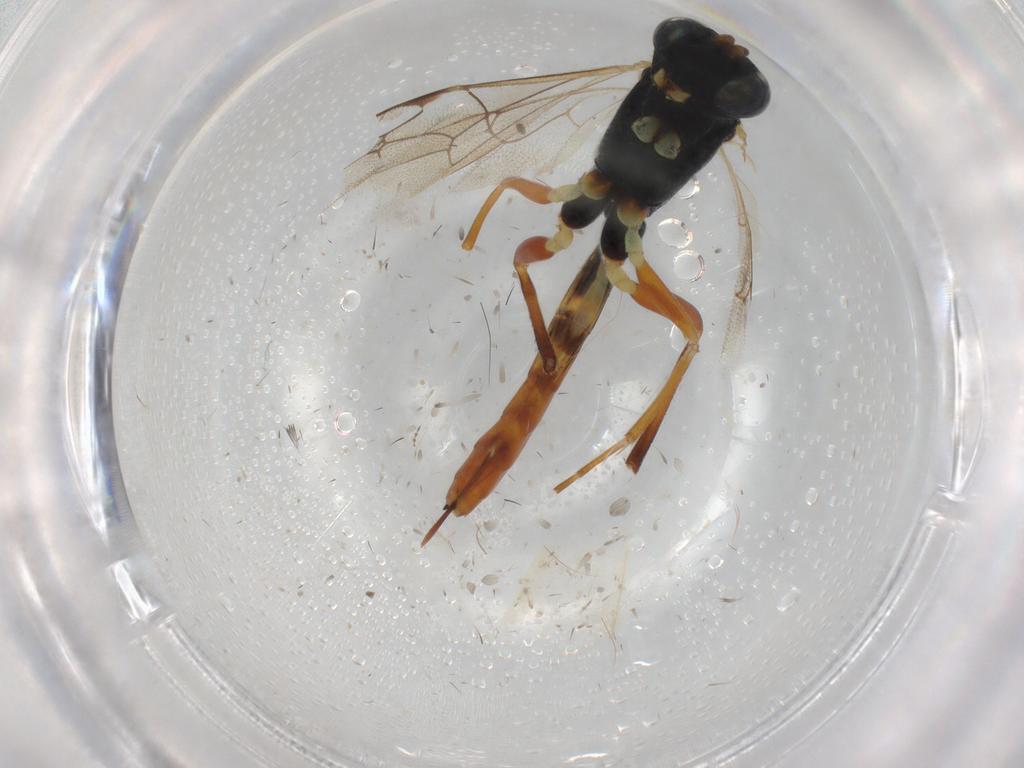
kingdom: Animalia
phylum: Arthropoda
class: Insecta
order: Hymenoptera
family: Ichneumonidae
